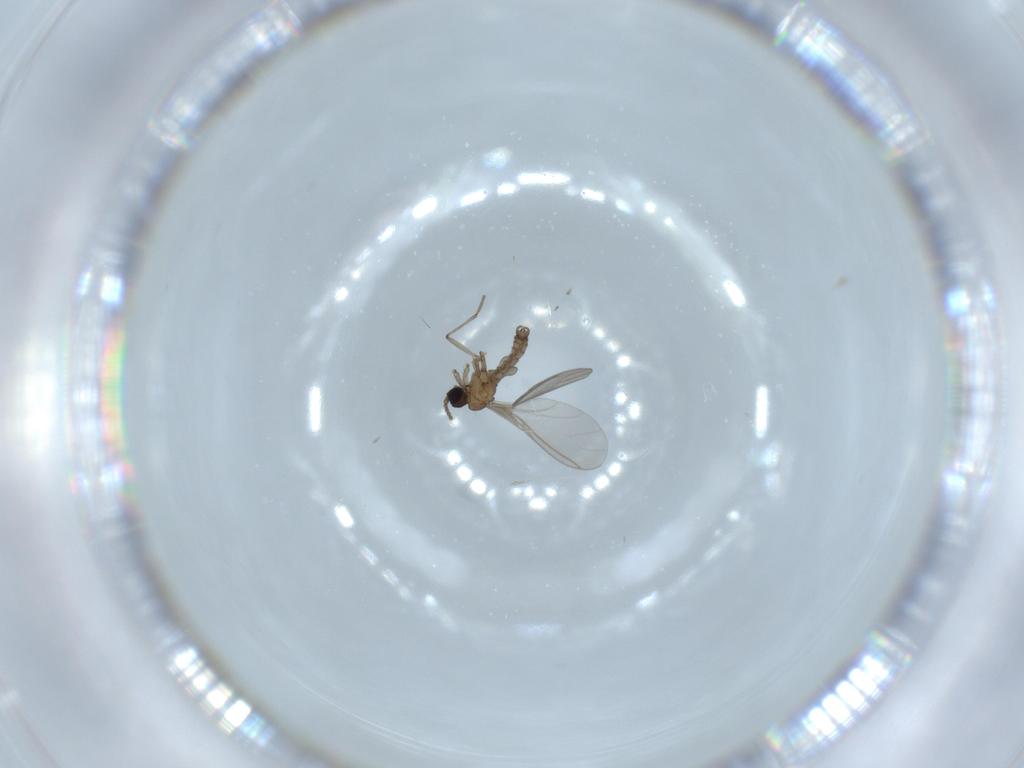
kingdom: Animalia
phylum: Arthropoda
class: Insecta
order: Diptera
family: Sciaridae
